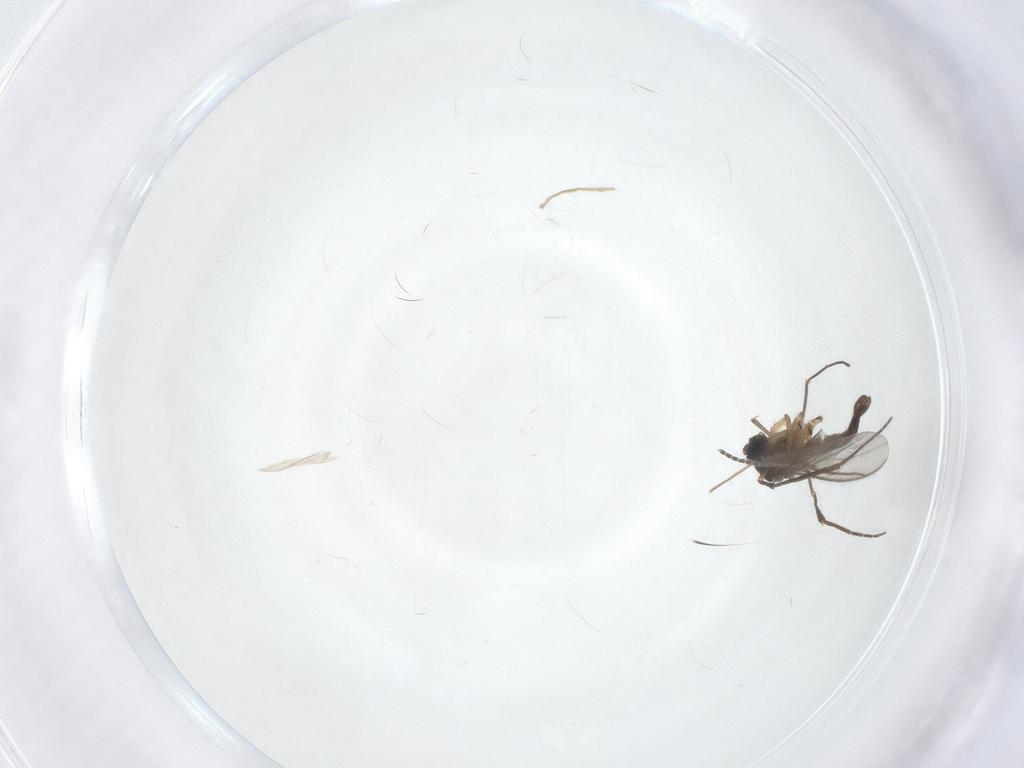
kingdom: Animalia
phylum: Arthropoda
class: Insecta
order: Diptera
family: Sciaridae
